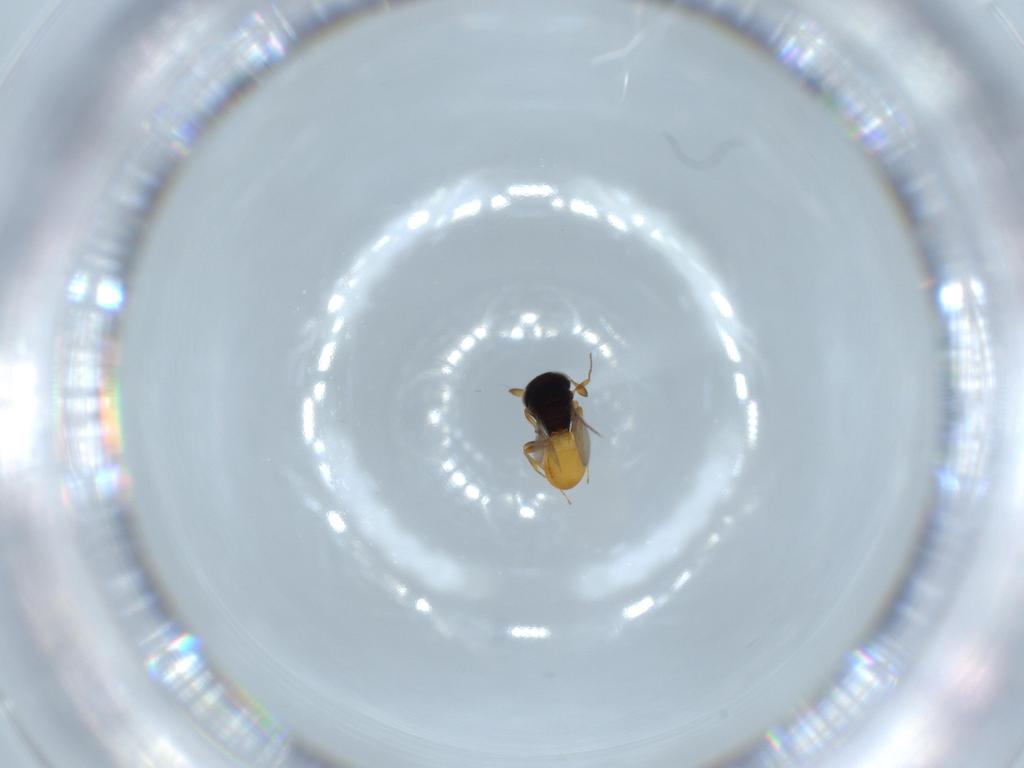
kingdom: Animalia
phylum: Arthropoda
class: Insecta
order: Hymenoptera
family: Scelionidae
